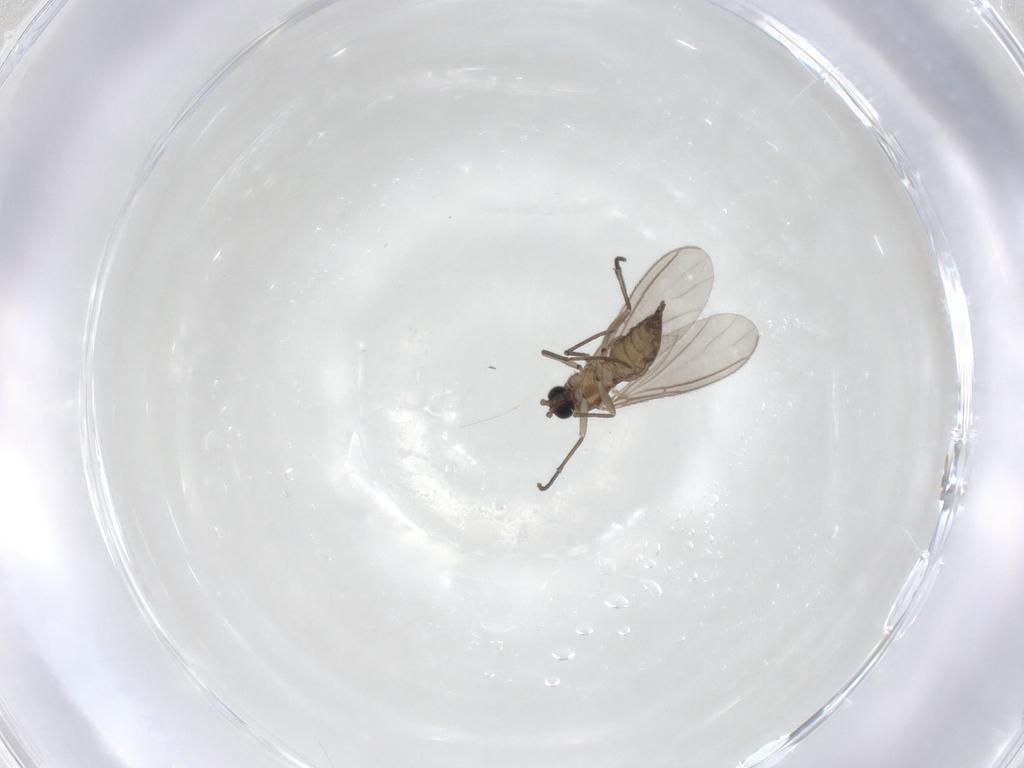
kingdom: Animalia
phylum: Arthropoda
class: Insecta
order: Diptera
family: Sciaridae
